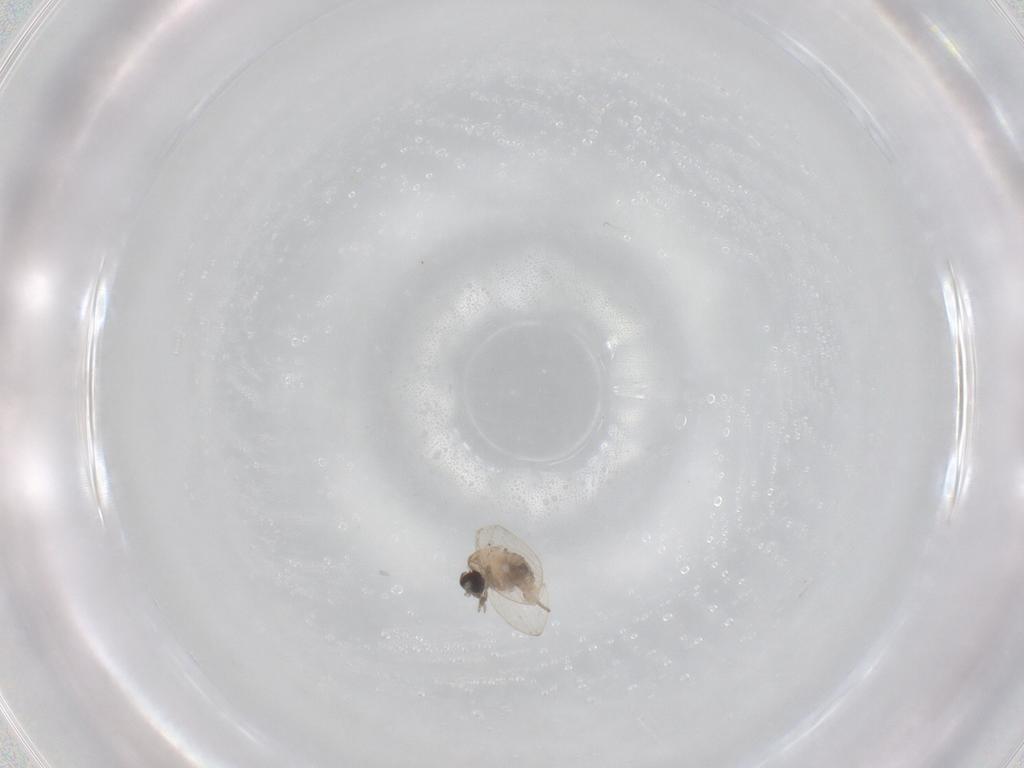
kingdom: Animalia
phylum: Arthropoda
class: Insecta
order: Diptera
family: Psychodidae
